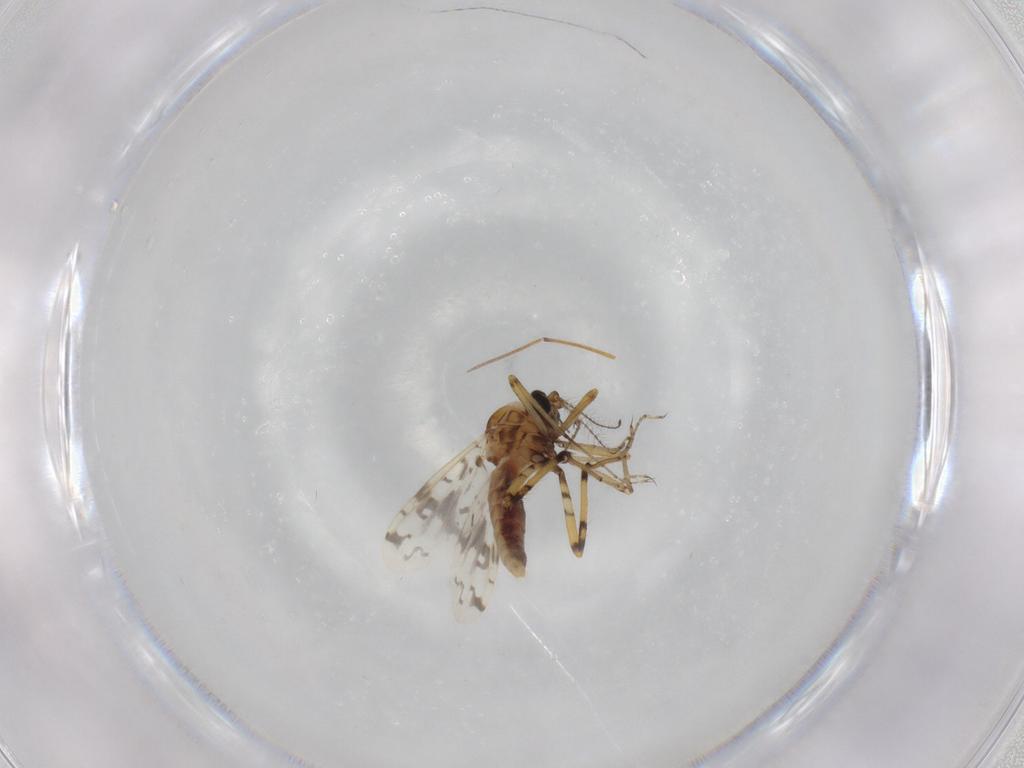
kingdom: Animalia
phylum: Arthropoda
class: Insecta
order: Diptera
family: Ceratopogonidae
